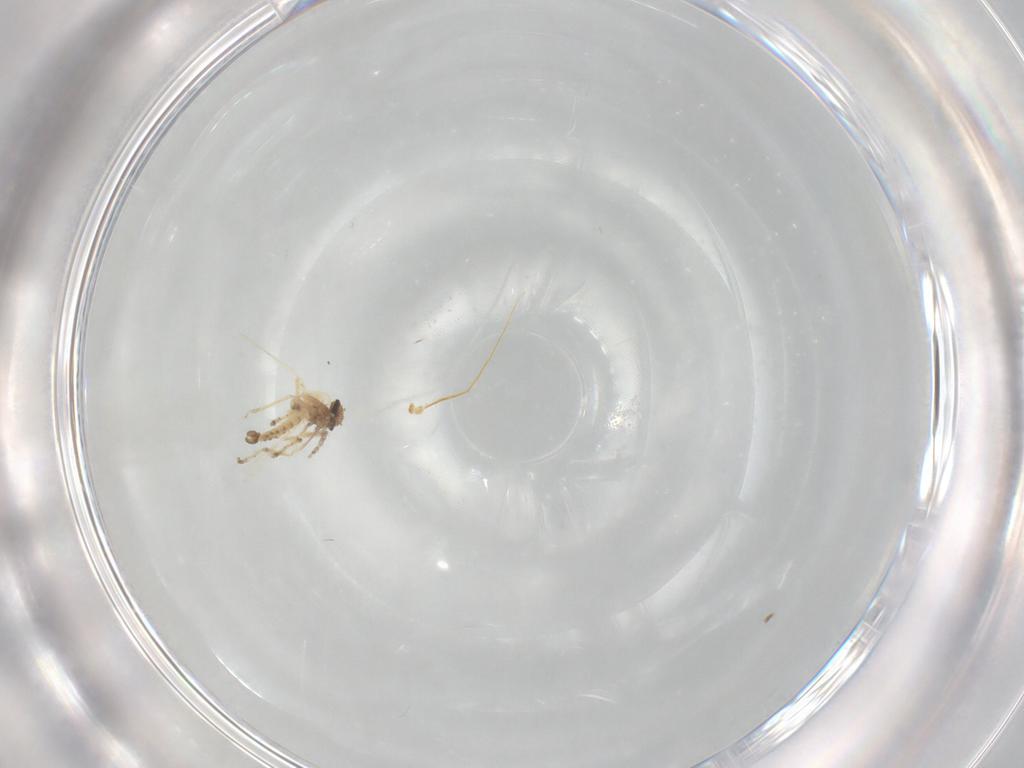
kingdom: Animalia
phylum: Arthropoda
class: Insecta
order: Diptera
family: Ceratopogonidae
